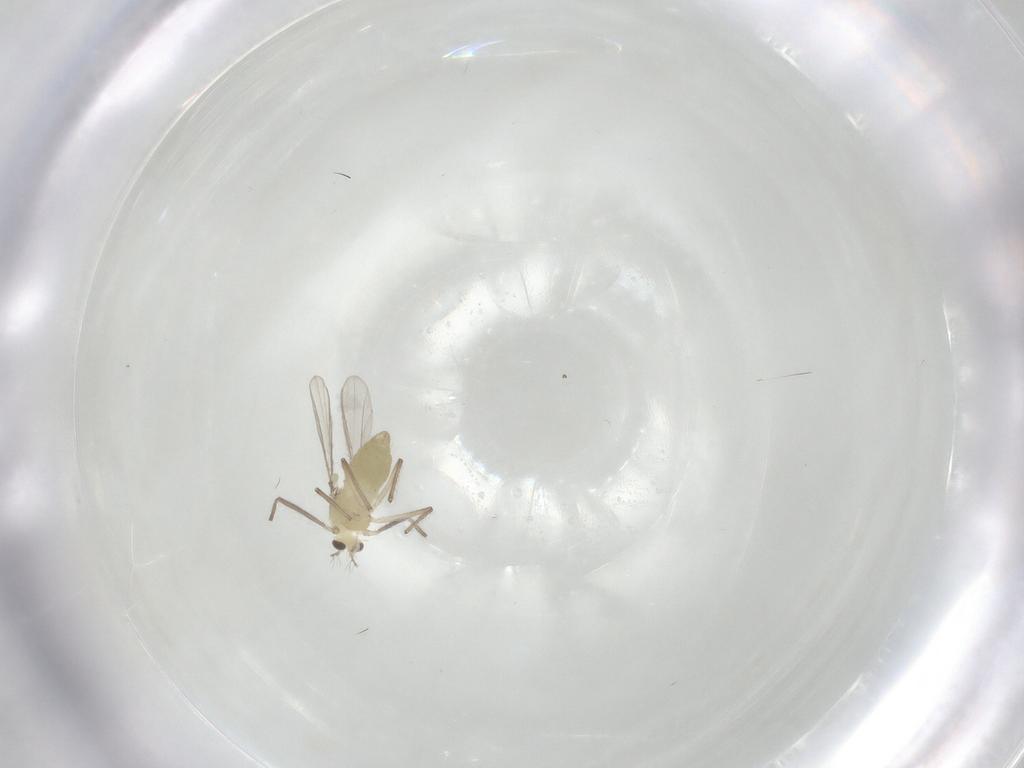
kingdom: Animalia
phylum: Arthropoda
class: Insecta
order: Diptera
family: Chironomidae
